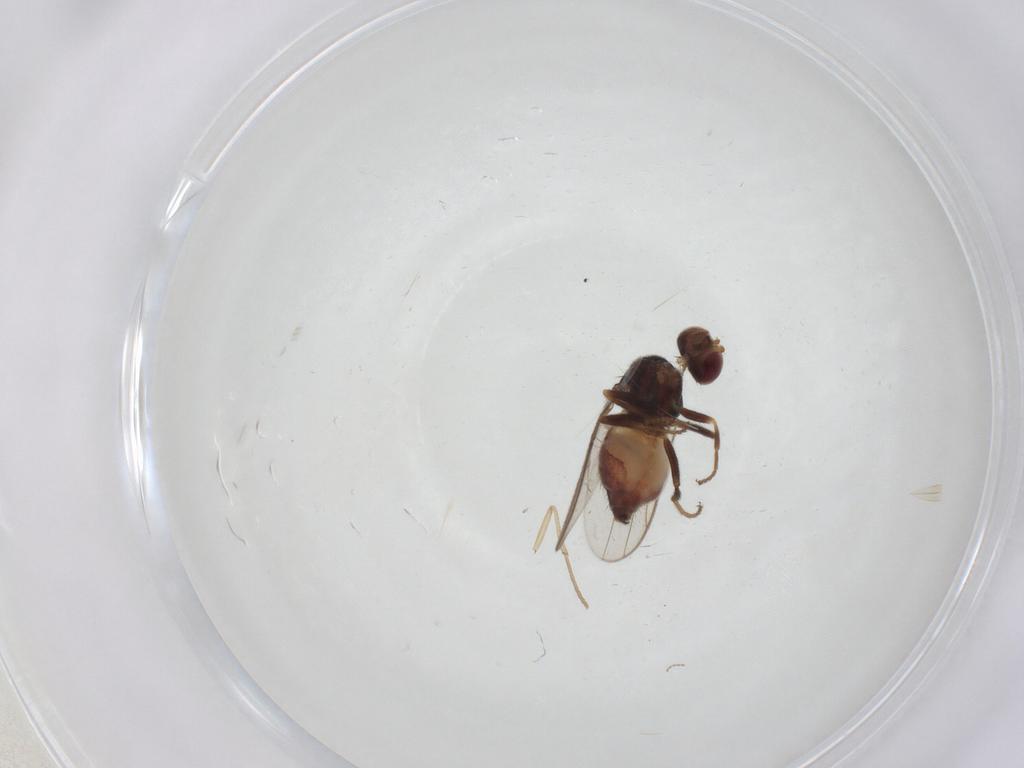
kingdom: Animalia
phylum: Arthropoda
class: Insecta
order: Diptera
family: Chloropidae
